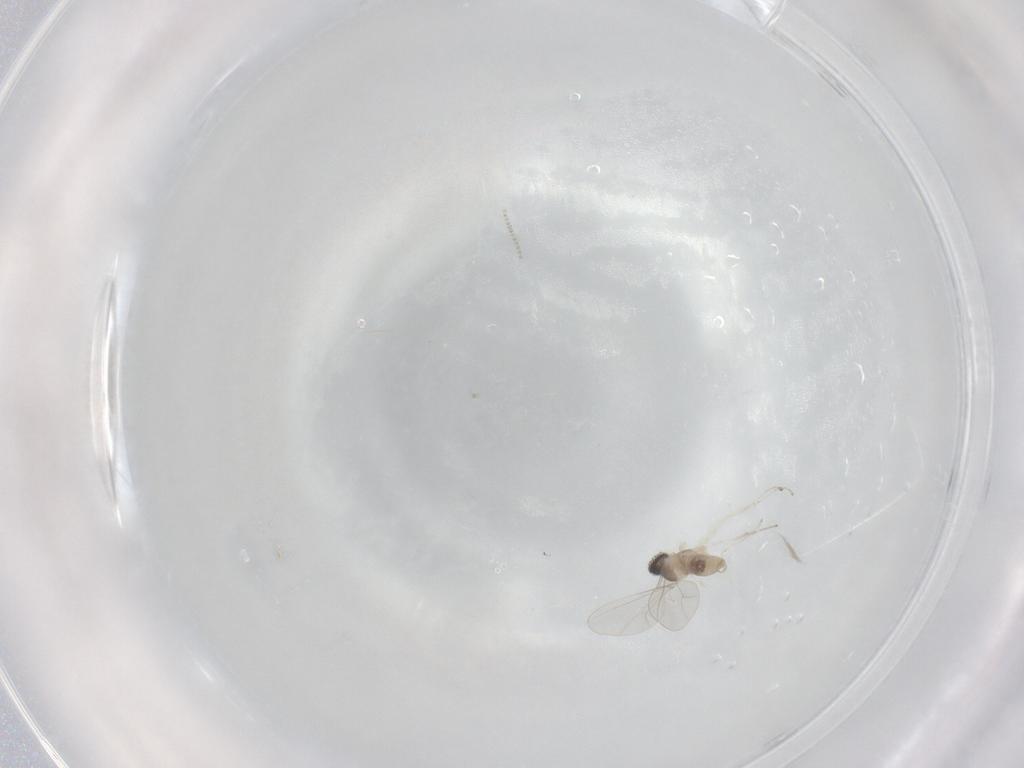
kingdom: Animalia
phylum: Arthropoda
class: Insecta
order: Diptera
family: Cecidomyiidae
